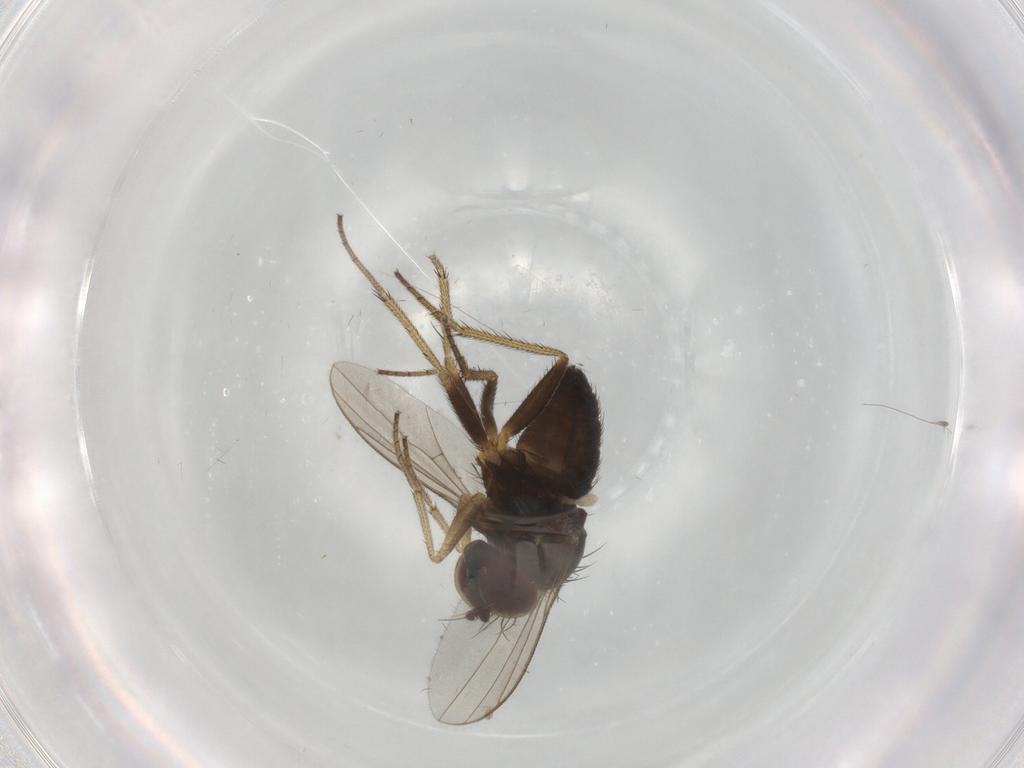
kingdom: Animalia
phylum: Arthropoda
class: Insecta
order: Diptera
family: Dolichopodidae
